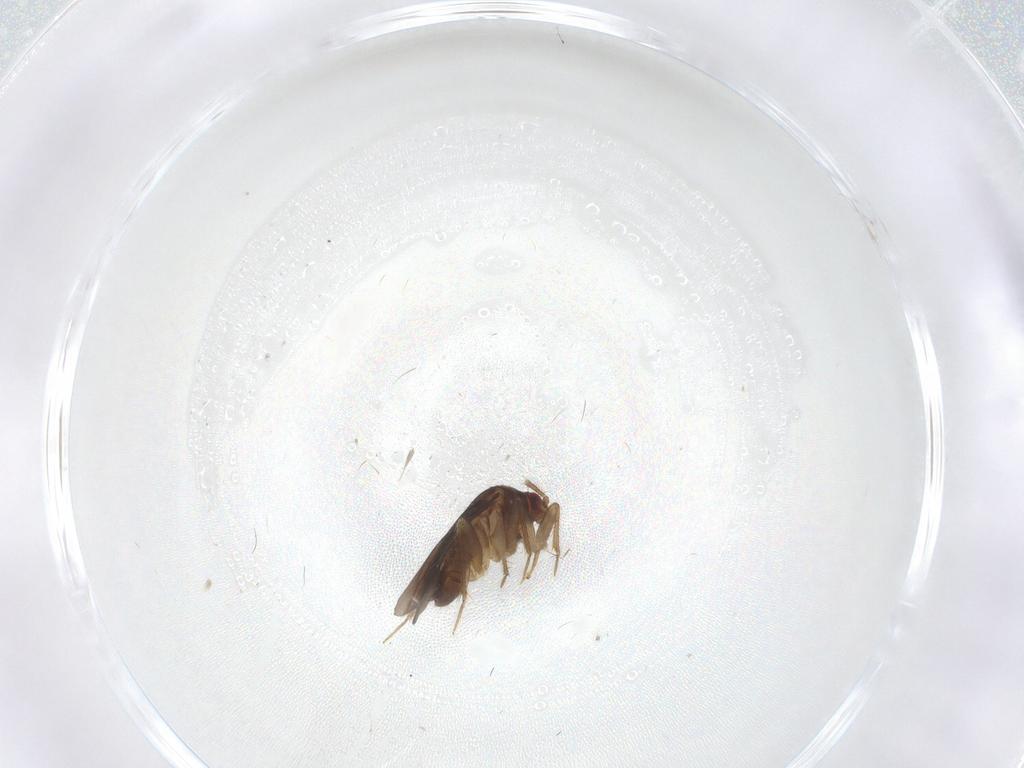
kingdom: Animalia
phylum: Arthropoda
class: Insecta
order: Hemiptera
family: Ceratocombidae
